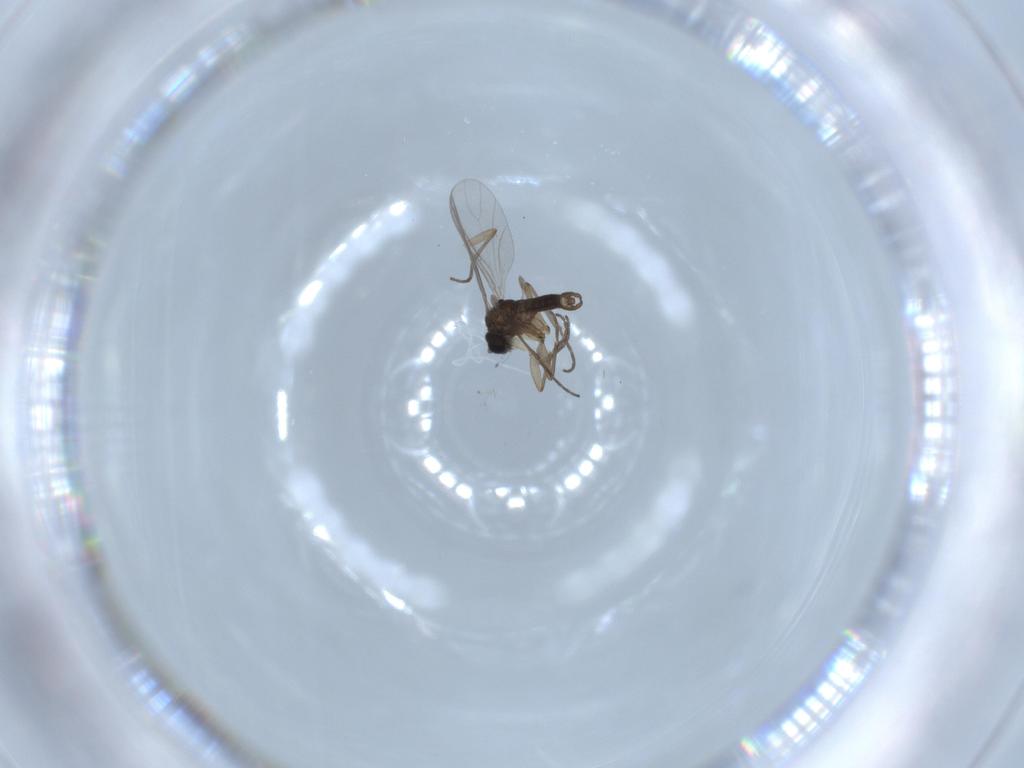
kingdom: Animalia
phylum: Arthropoda
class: Insecta
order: Diptera
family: Sciaridae
